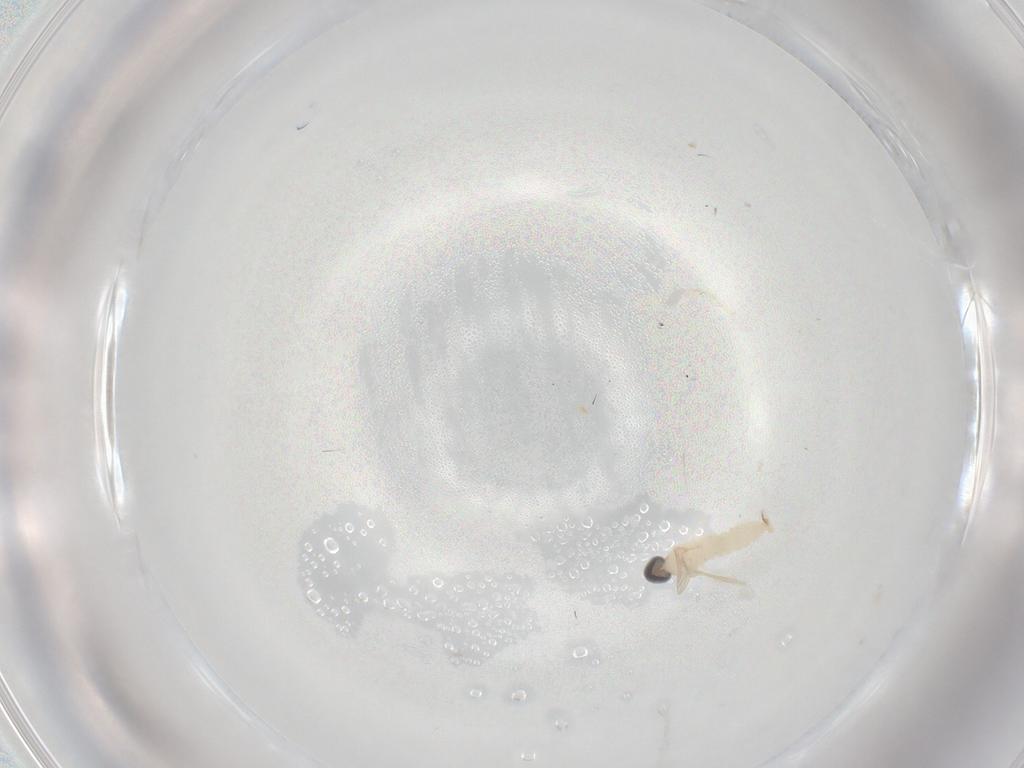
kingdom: Animalia
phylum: Arthropoda
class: Insecta
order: Diptera
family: Cecidomyiidae
